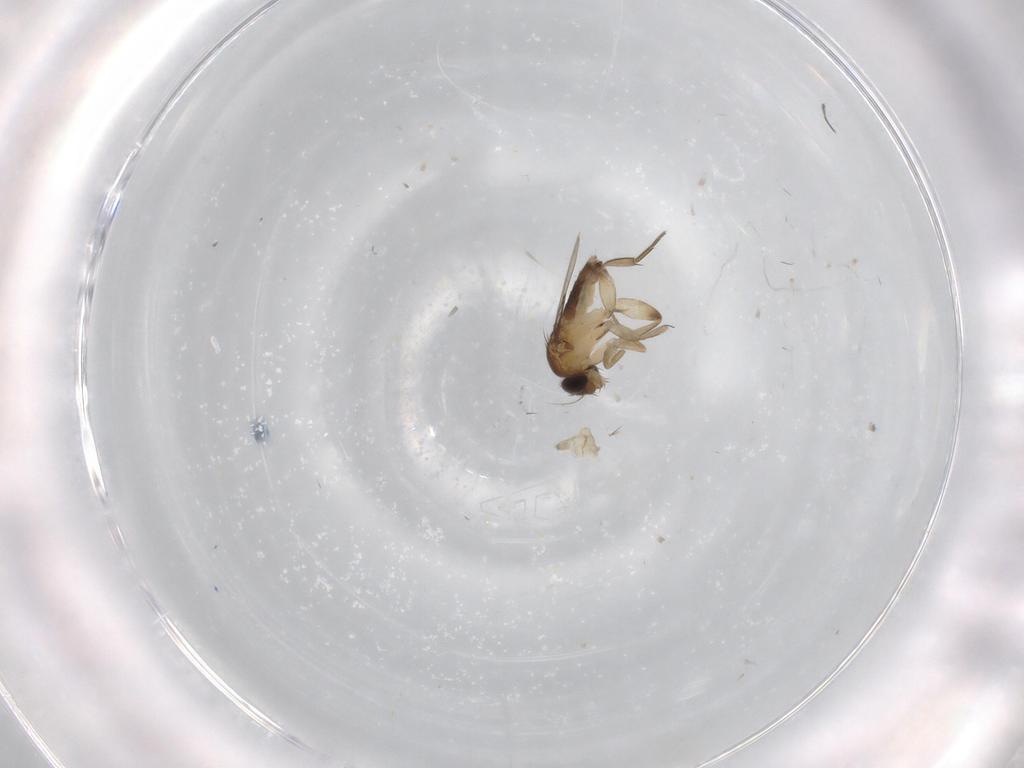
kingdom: Animalia
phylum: Arthropoda
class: Insecta
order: Diptera
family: Phoridae
